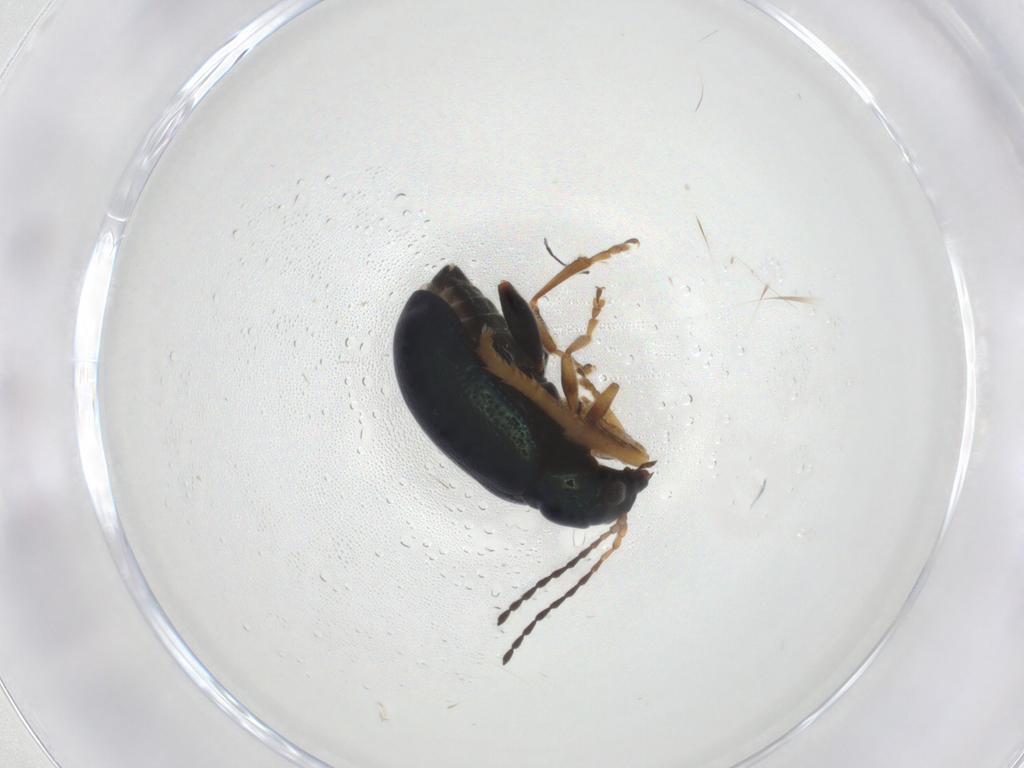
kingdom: Animalia
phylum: Arthropoda
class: Insecta
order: Coleoptera
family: Chrysomelidae
